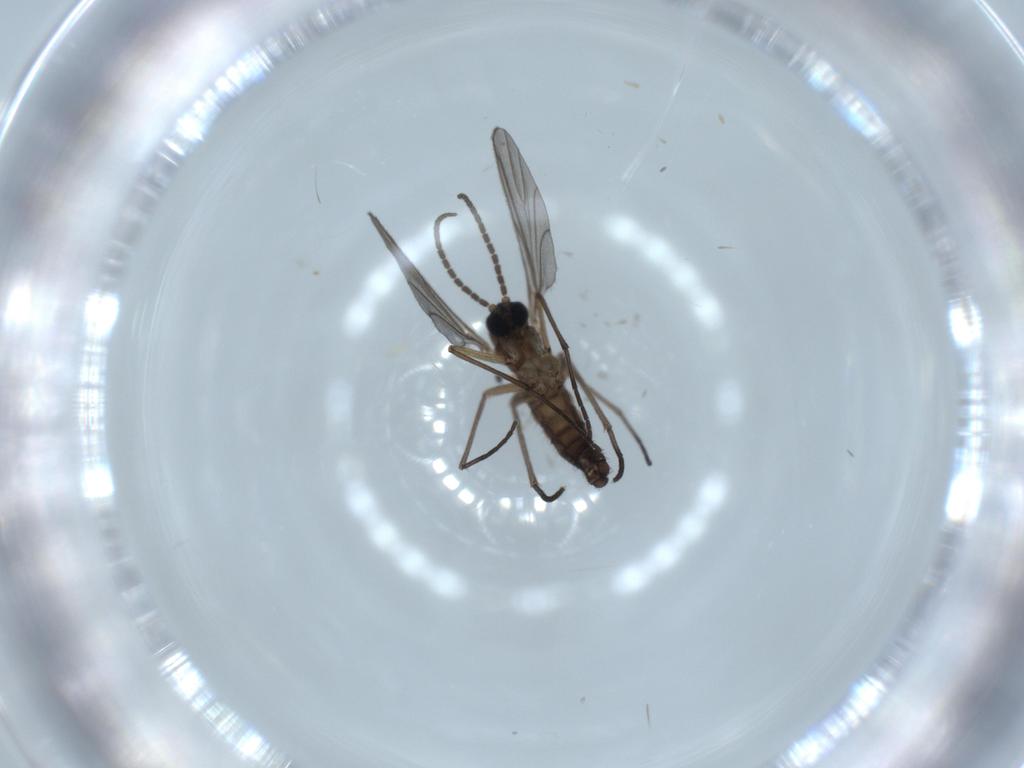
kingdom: Animalia
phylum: Arthropoda
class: Insecta
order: Diptera
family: Sciaridae
